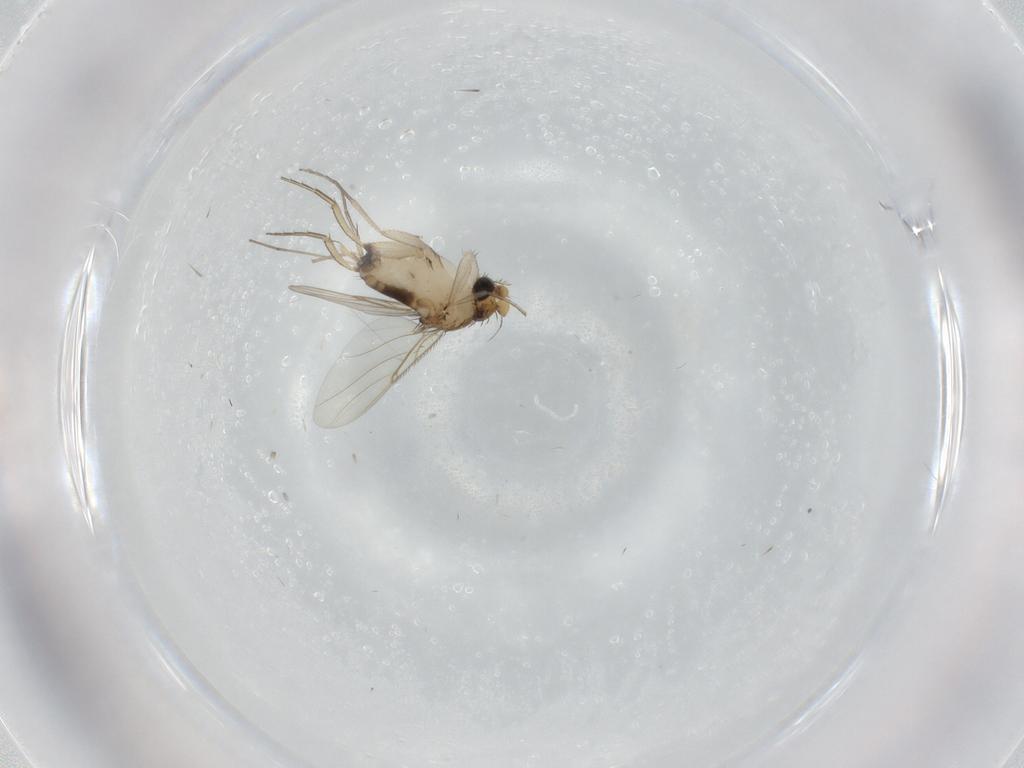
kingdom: Animalia
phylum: Arthropoda
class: Insecta
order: Diptera
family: Phoridae
